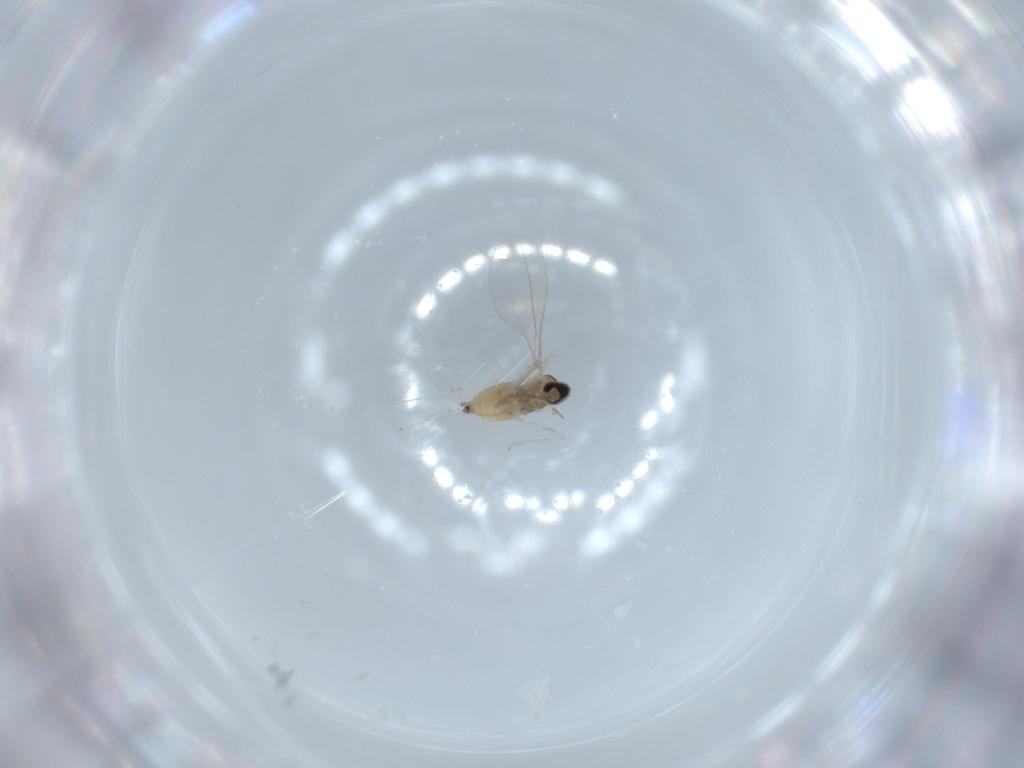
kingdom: Animalia
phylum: Arthropoda
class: Insecta
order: Diptera
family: Cecidomyiidae
